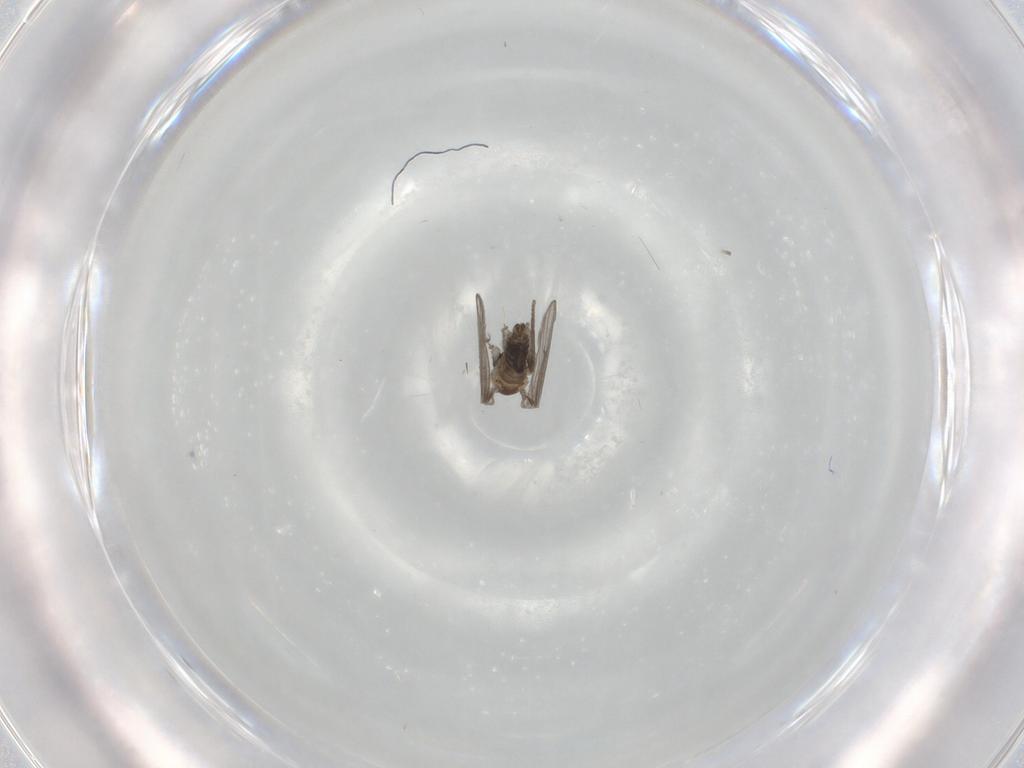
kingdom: Animalia
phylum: Arthropoda
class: Insecta
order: Diptera
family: Psychodidae
